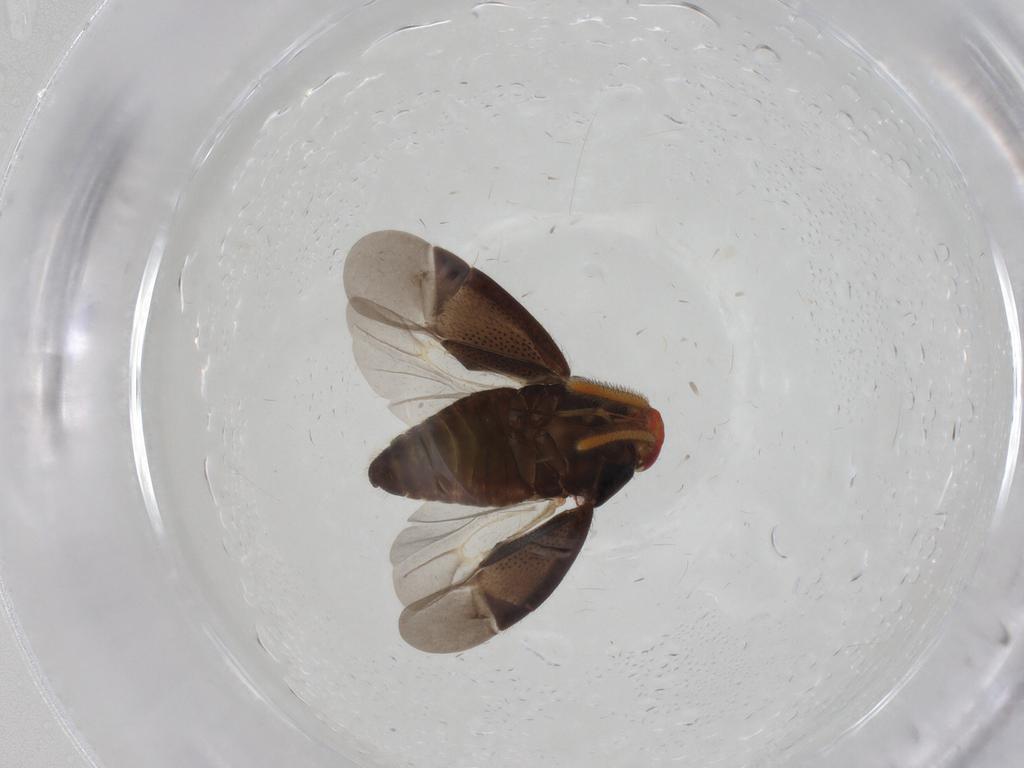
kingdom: Animalia
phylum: Arthropoda
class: Insecta
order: Hemiptera
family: Miridae
